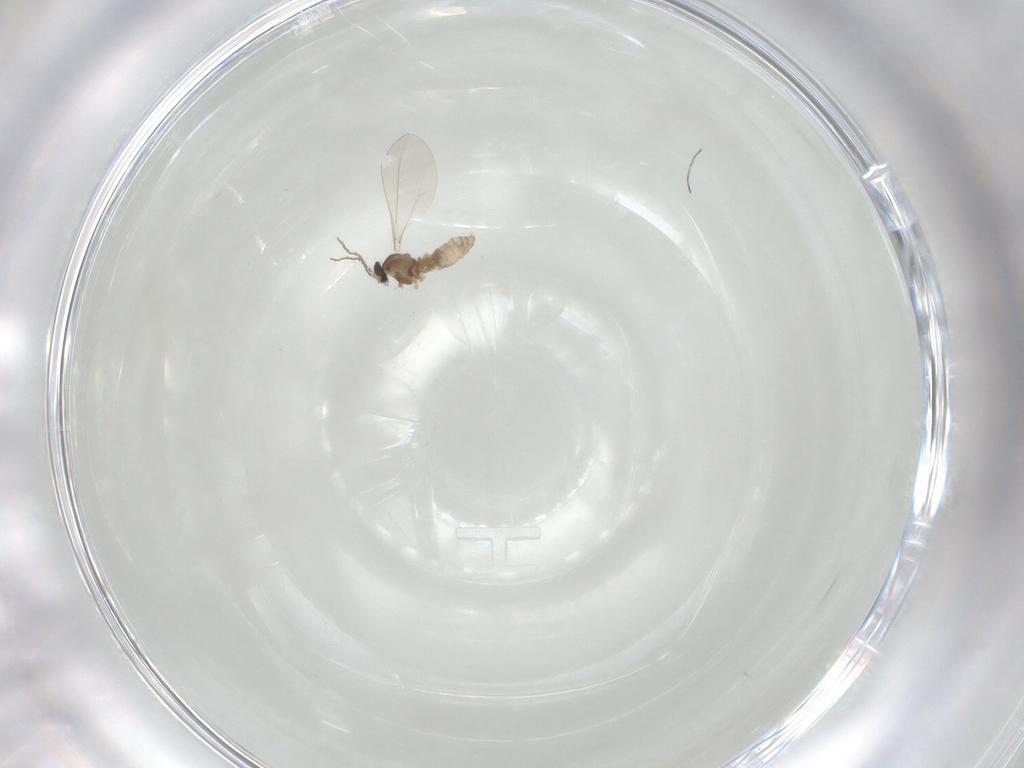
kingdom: Animalia
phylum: Arthropoda
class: Insecta
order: Diptera
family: Cecidomyiidae
